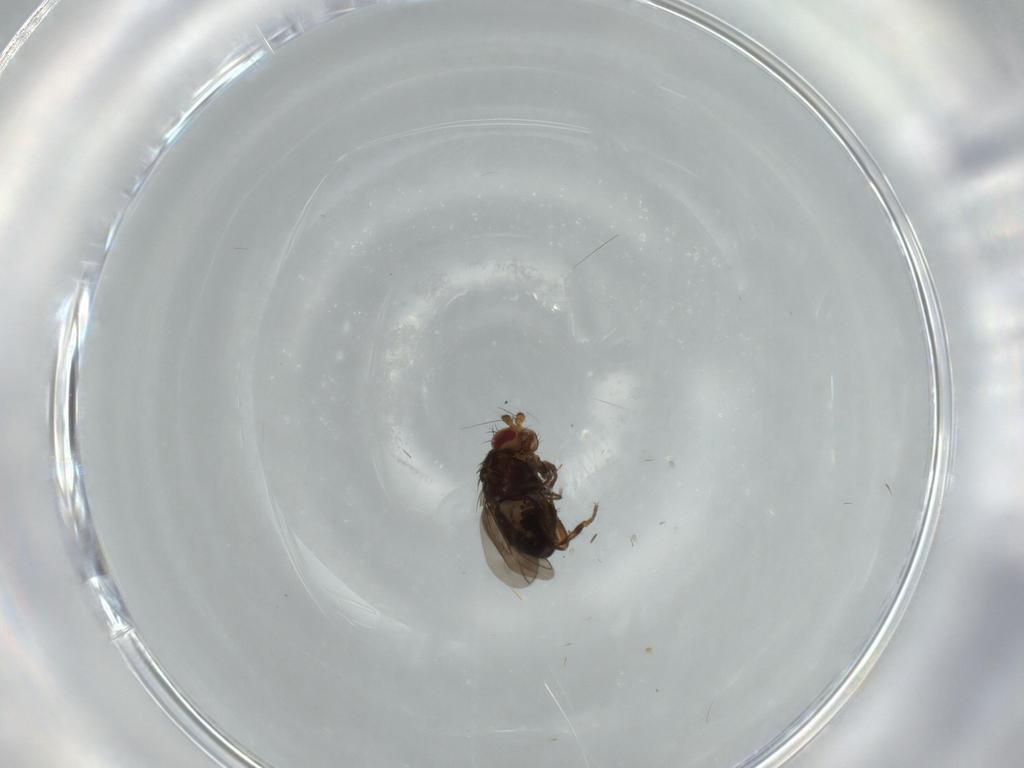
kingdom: Animalia
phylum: Arthropoda
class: Insecta
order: Diptera
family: Sphaeroceridae
